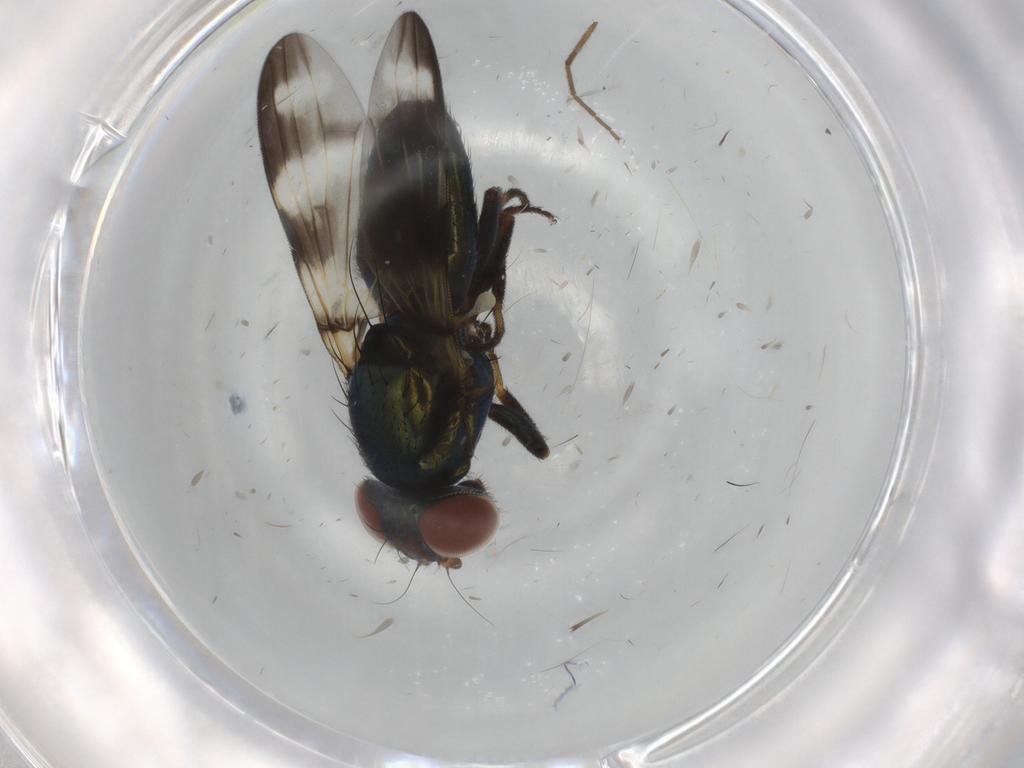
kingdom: Animalia
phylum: Arthropoda
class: Insecta
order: Diptera
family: Ulidiidae
